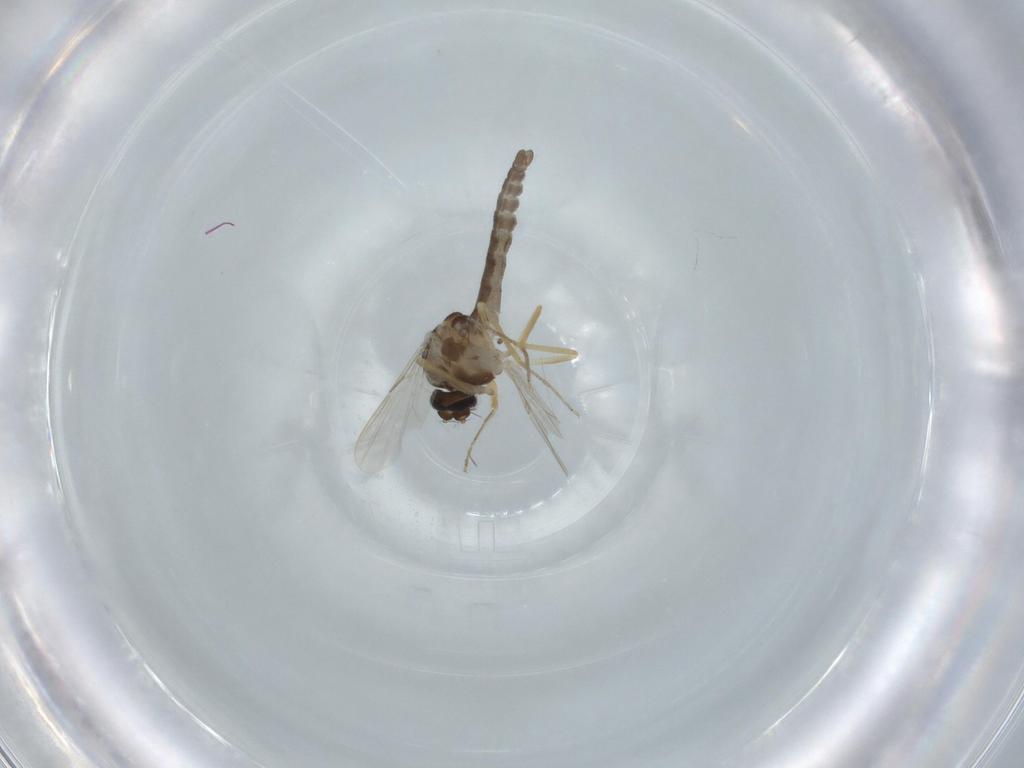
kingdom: Animalia
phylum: Arthropoda
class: Insecta
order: Diptera
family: Ceratopogonidae
